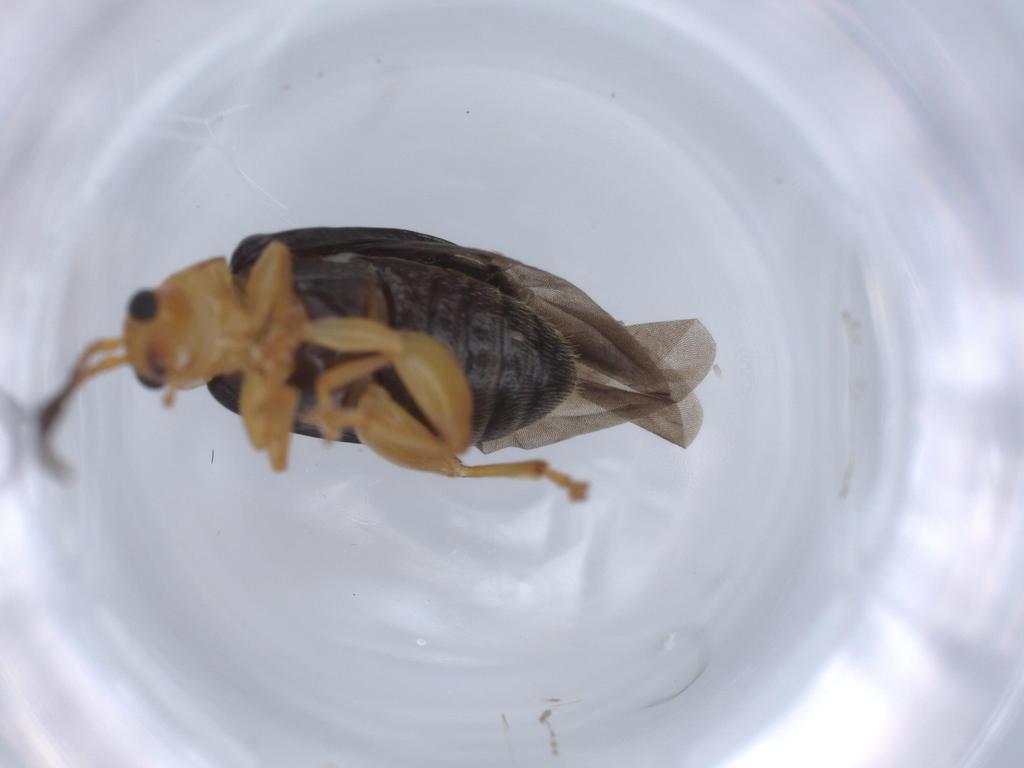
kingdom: Animalia
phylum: Arthropoda
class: Insecta
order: Coleoptera
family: Chrysomelidae
